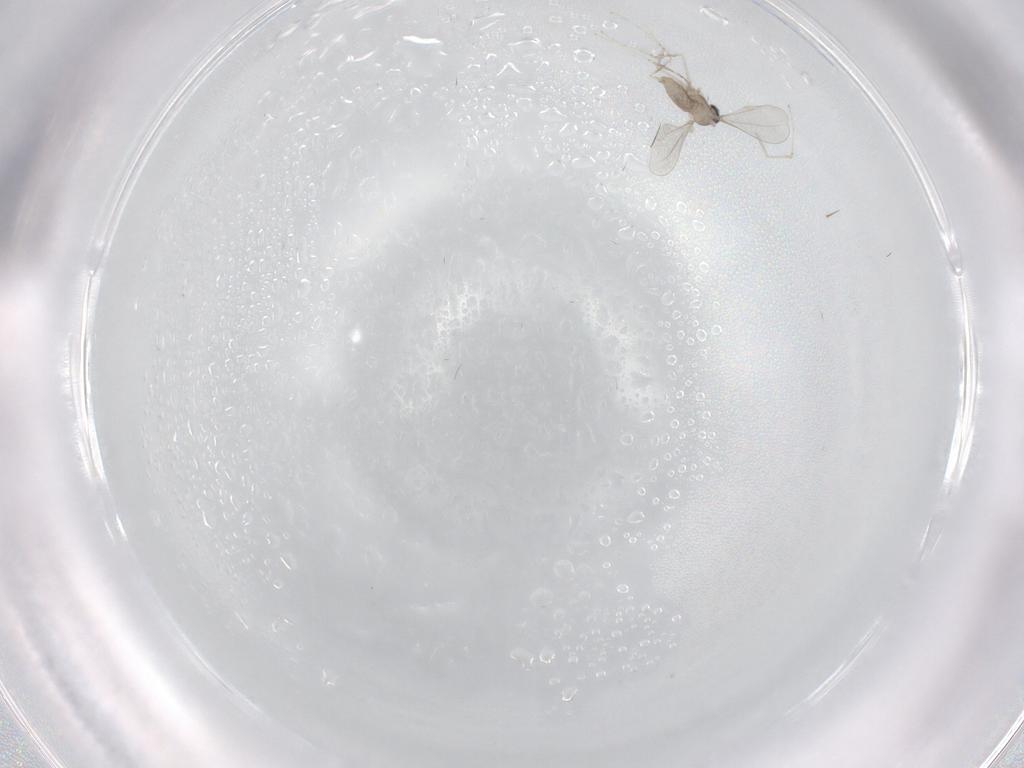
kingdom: Animalia
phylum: Arthropoda
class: Insecta
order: Diptera
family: Cecidomyiidae
